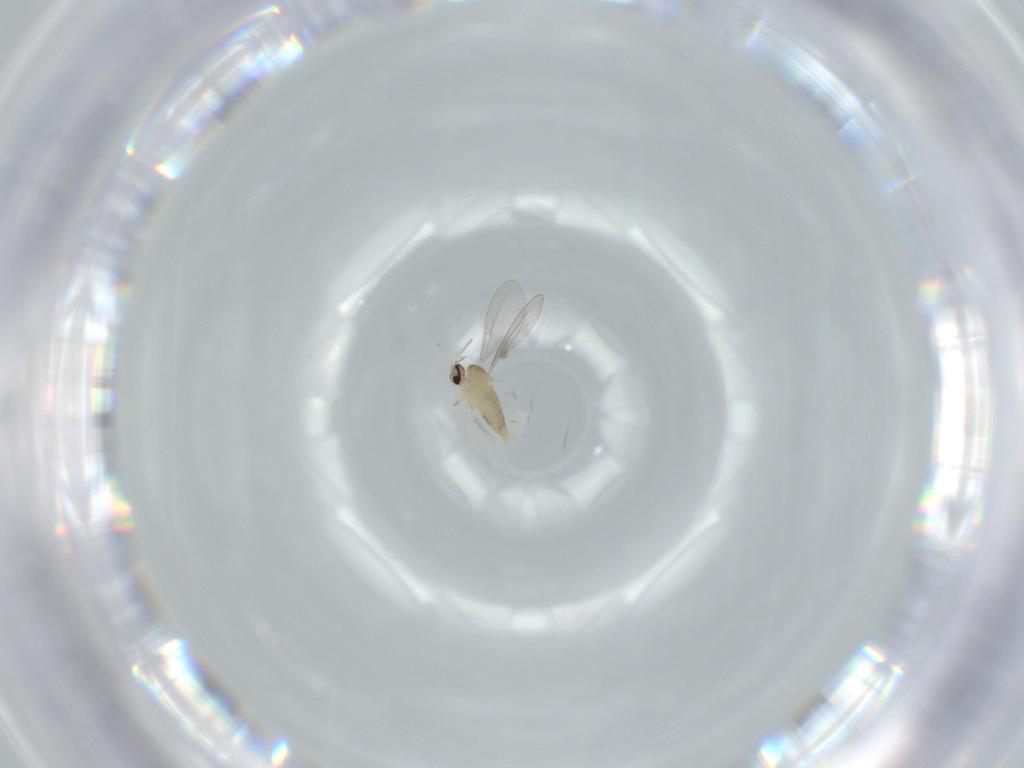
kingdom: Animalia
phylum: Arthropoda
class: Insecta
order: Diptera
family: Cecidomyiidae
